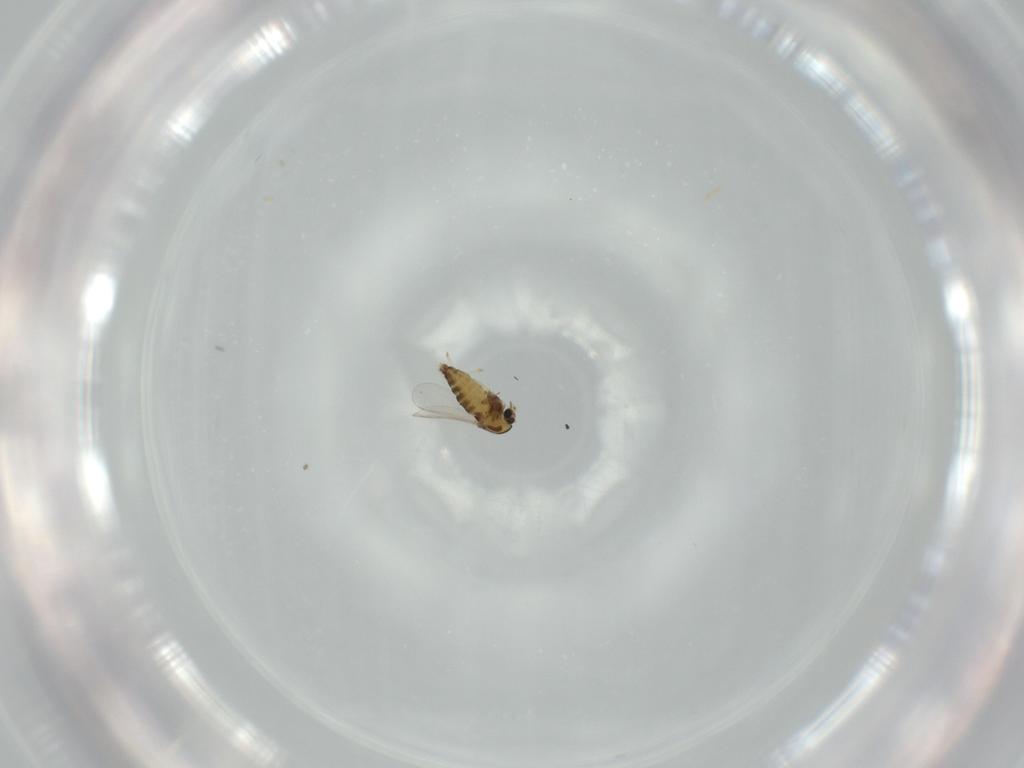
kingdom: Animalia
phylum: Arthropoda
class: Insecta
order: Diptera
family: Chironomidae
